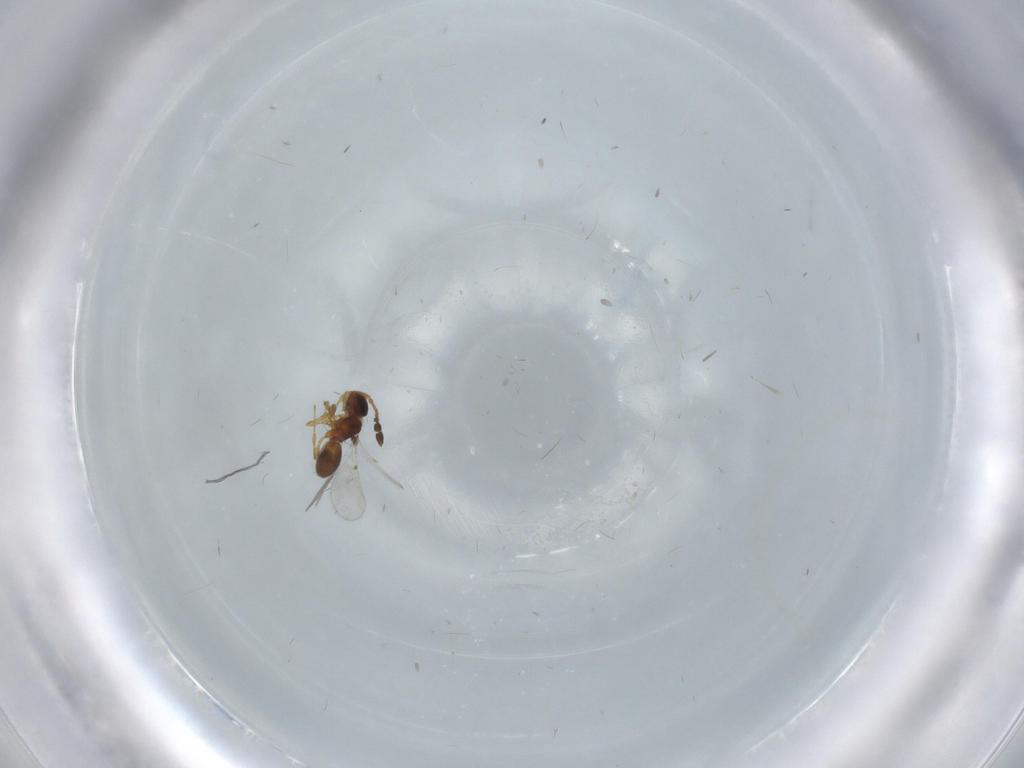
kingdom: Animalia
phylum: Arthropoda
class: Insecta
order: Hymenoptera
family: Diapriidae
